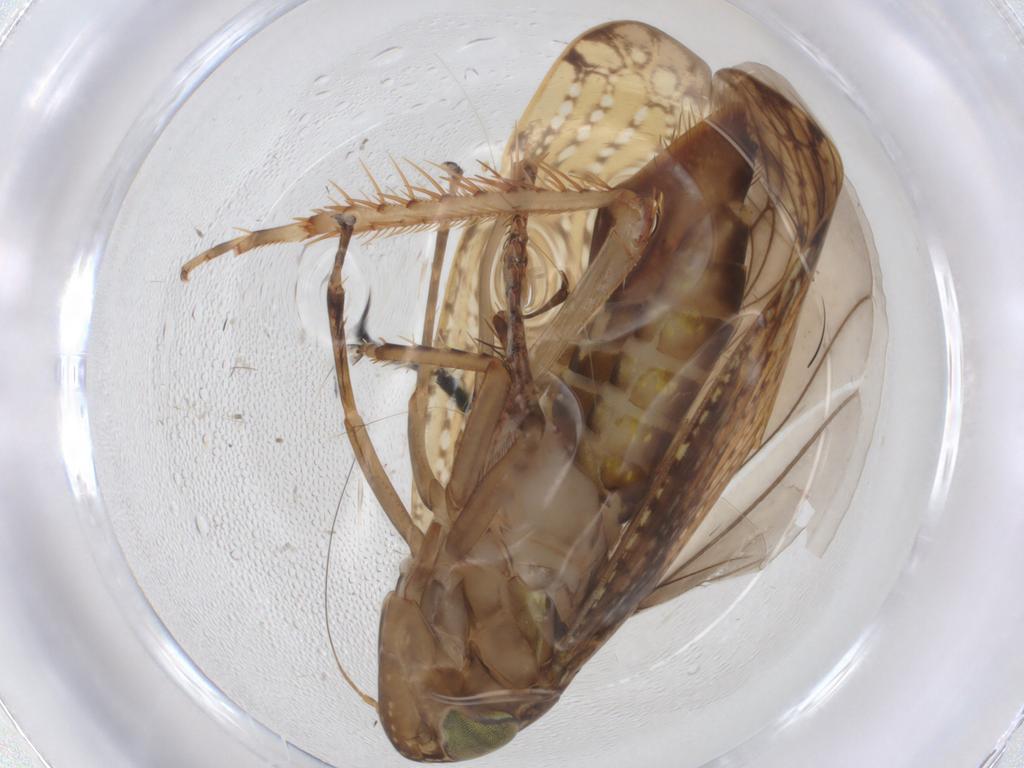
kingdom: Animalia
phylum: Arthropoda
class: Insecta
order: Hemiptera
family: Cicadellidae
